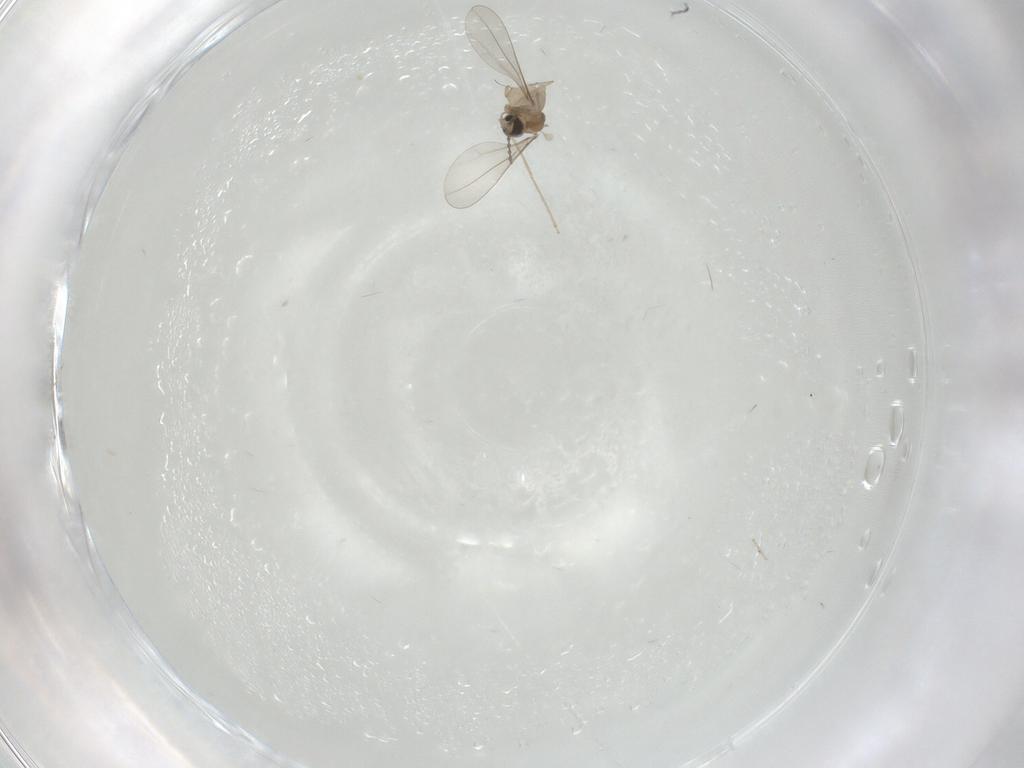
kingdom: Animalia
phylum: Arthropoda
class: Insecta
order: Diptera
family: Cecidomyiidae
